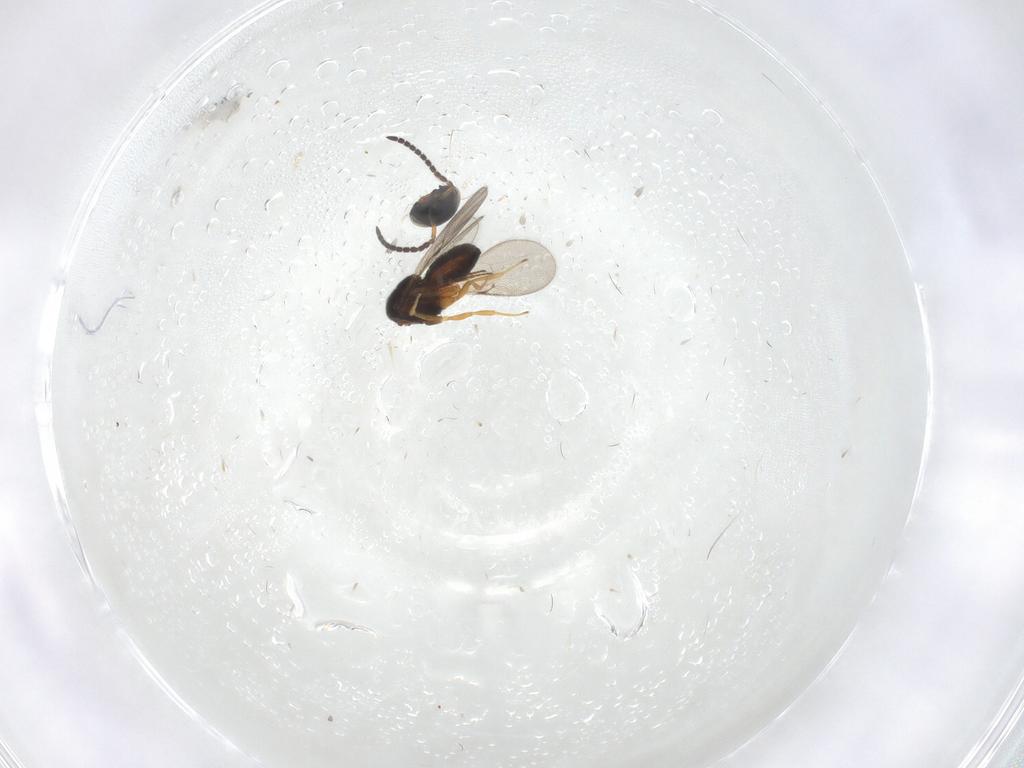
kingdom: Animalia
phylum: Arthropoda
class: Insecta
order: Hymenoptera
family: Scelionidae
